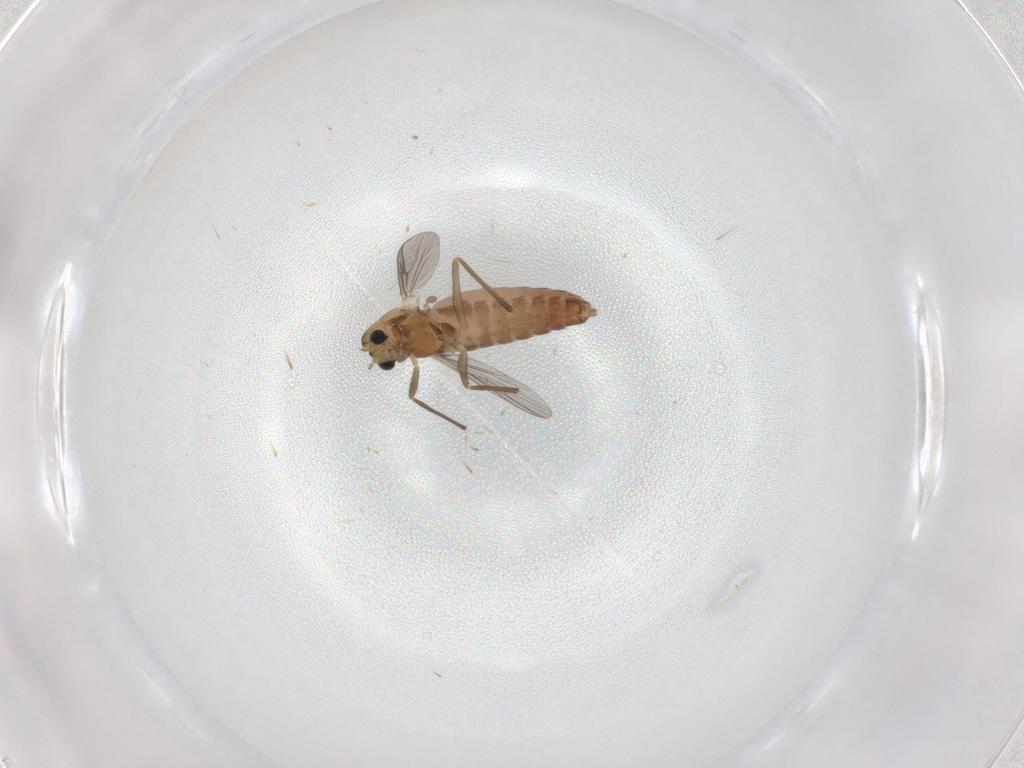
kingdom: Animalia
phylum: Arthropoda
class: Insecta
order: Diptera
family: Chironomidae
